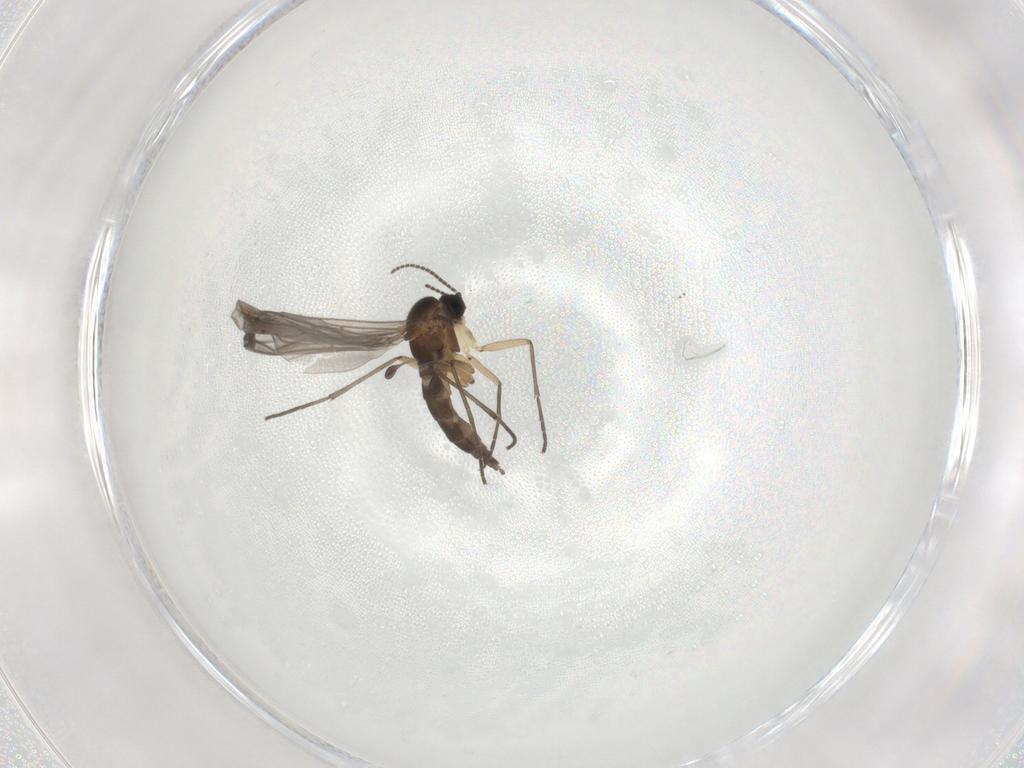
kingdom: Animalia
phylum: Arthropoda
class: Insecta
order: Diptera
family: Sciaridae
